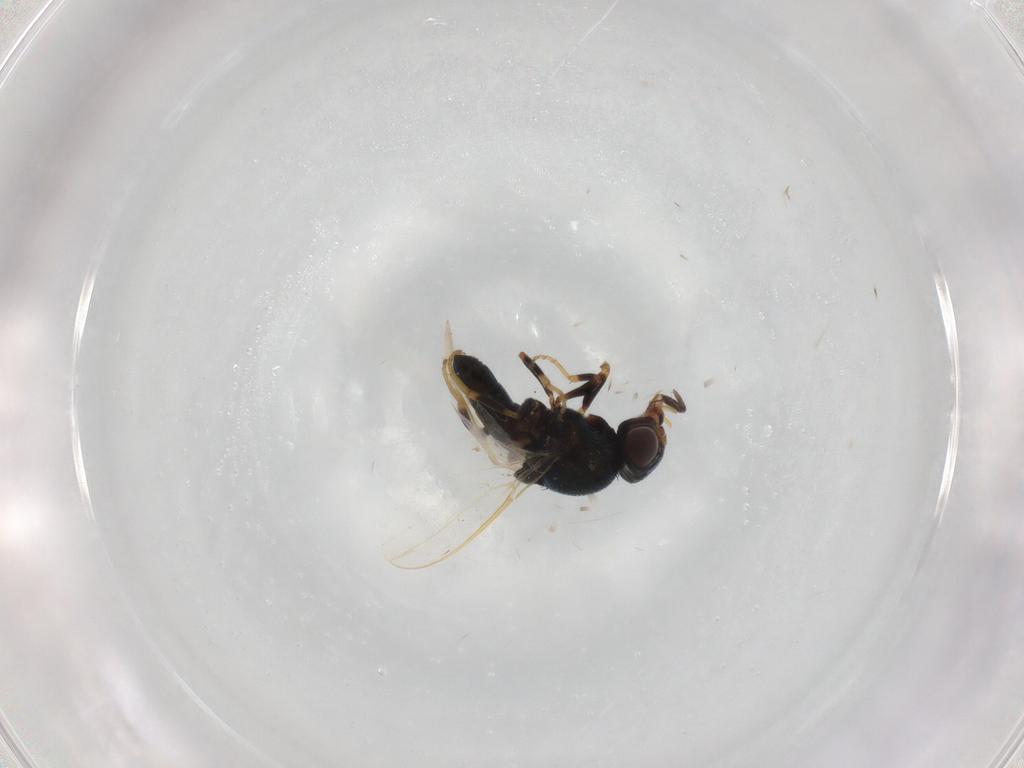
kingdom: Animalia
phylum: Arthropoda
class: Insecta
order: Diptera
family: Chloropidae
